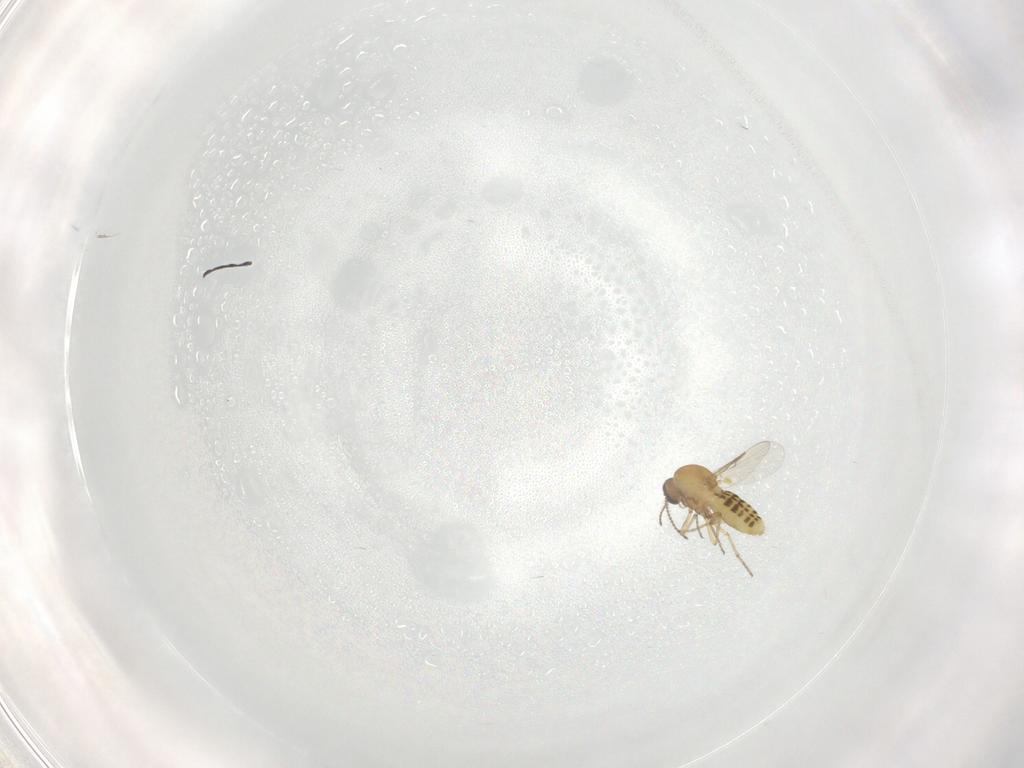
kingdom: Animalia
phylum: Arthropoda
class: Insecta
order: Diptera
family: Ceratopogonidae
